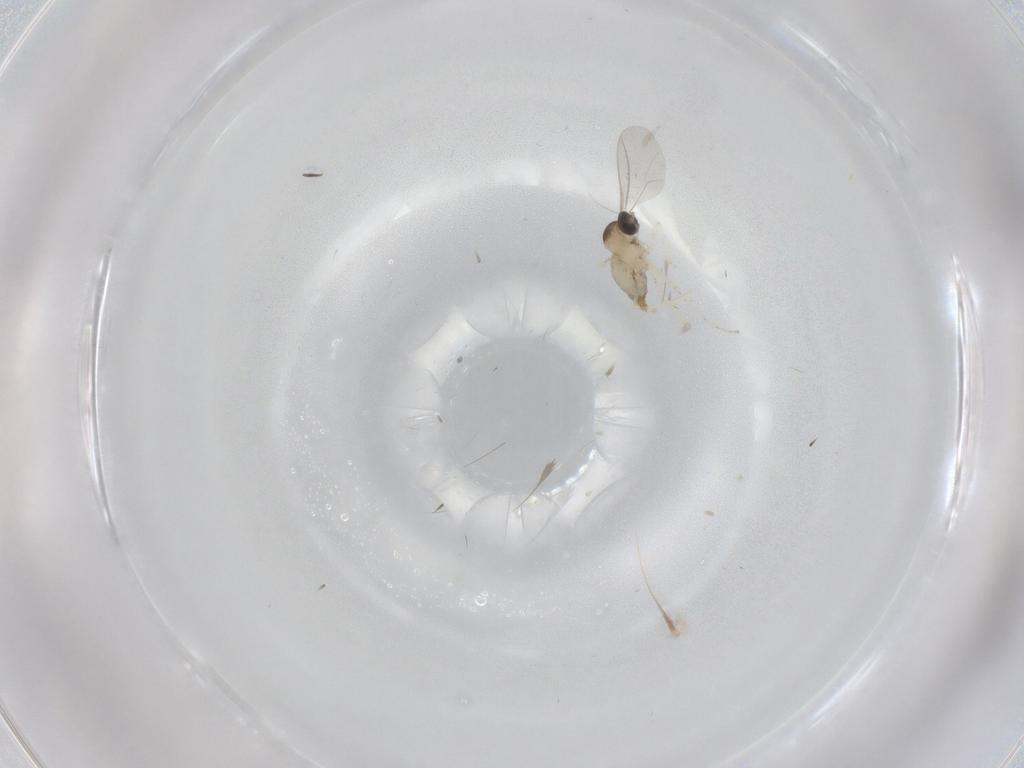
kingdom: Animalia
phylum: Arthropoda
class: Insecta
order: Diptera
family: Cecidomyiidae
